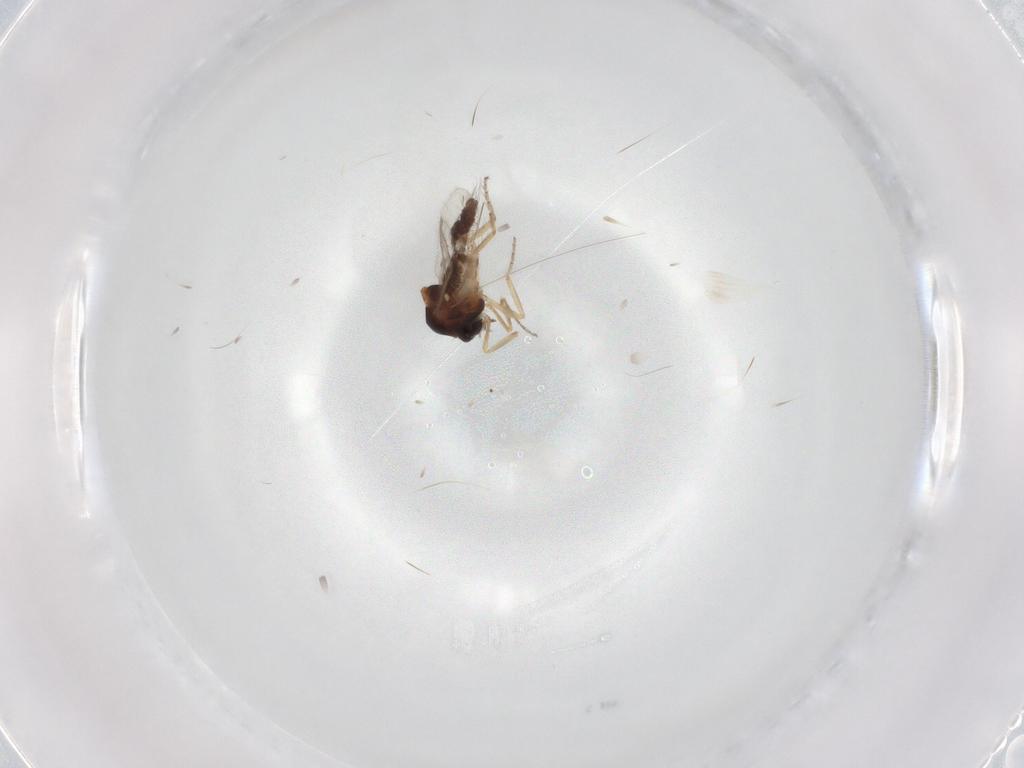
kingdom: Animalia
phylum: Arthropoda
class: Insecta
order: Diptera
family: Ceratopogonidae
